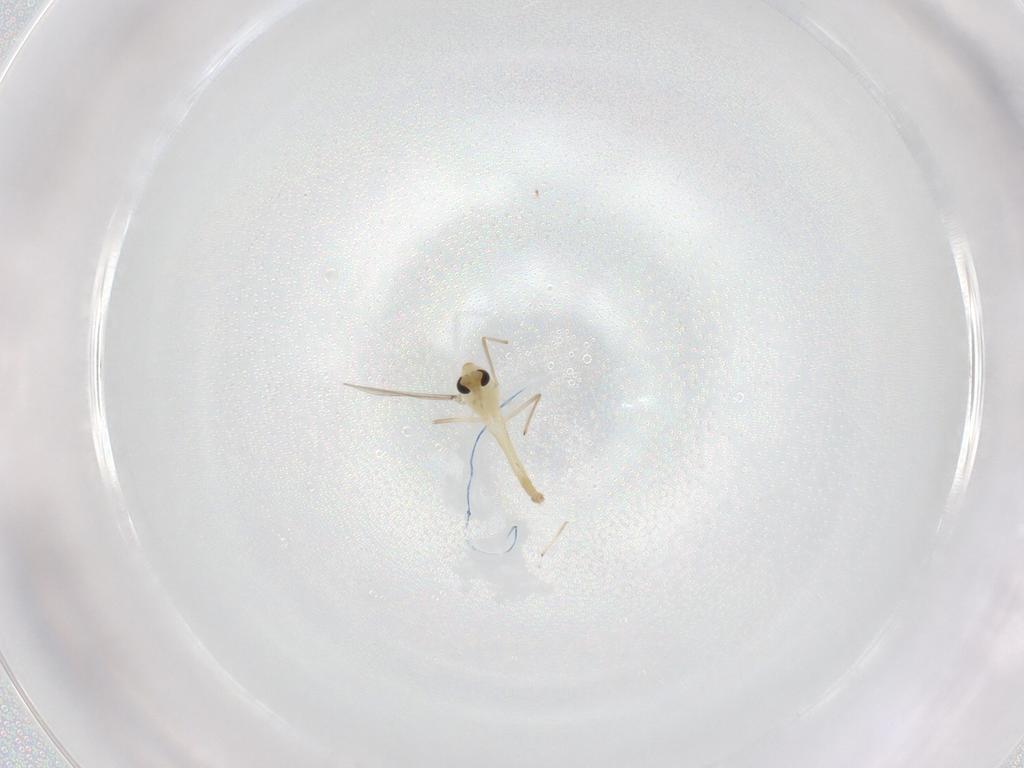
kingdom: Animalia
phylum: Arthropoda
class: Insecta
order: Diptera
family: Chironomidae
